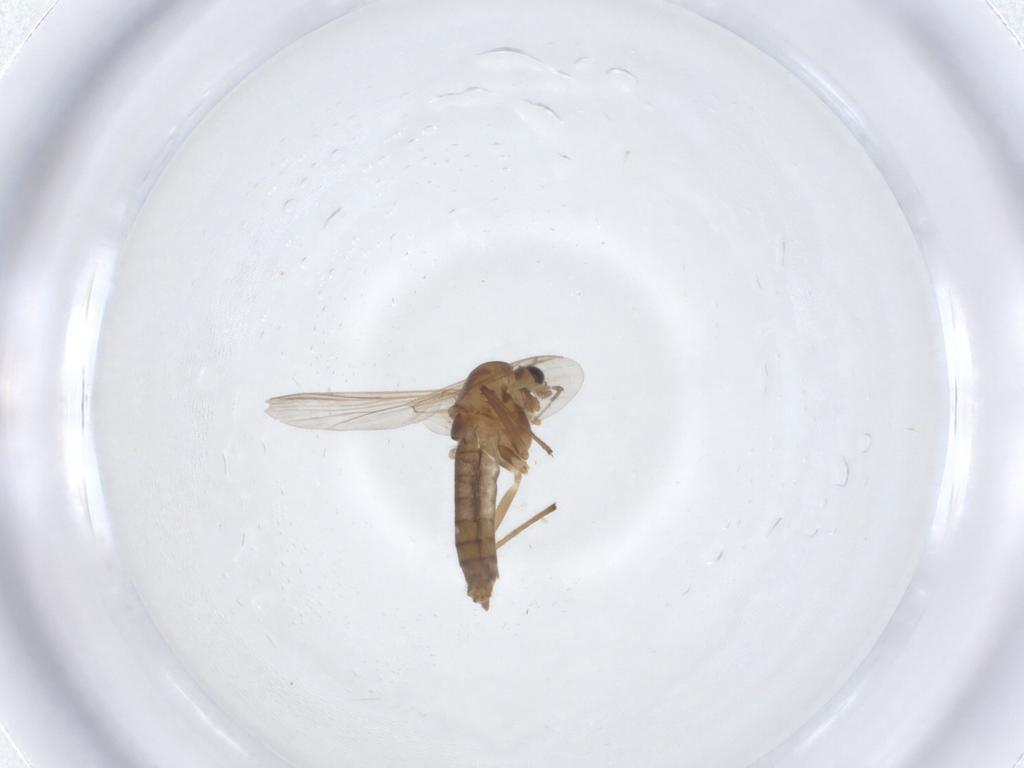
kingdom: Animalia
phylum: Arthropoda
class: Insecta
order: Diptera
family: Chironomidae
